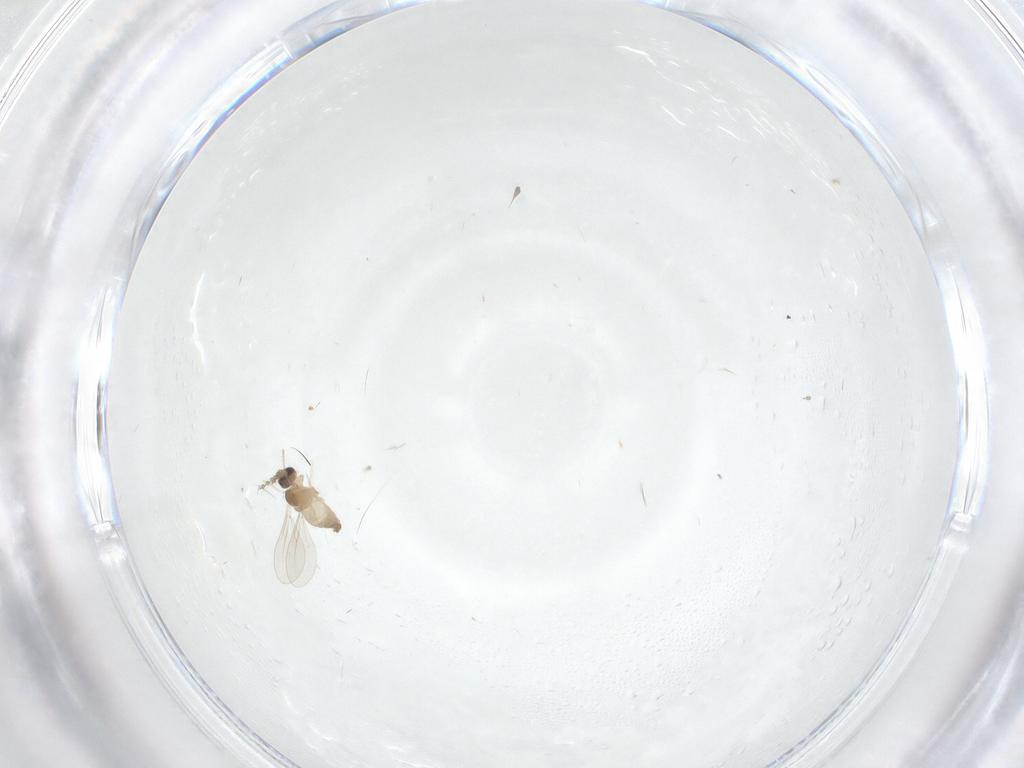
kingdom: Animalia
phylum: Arthropoda
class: Insecta
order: Diptera
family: Cecidomyiidae
